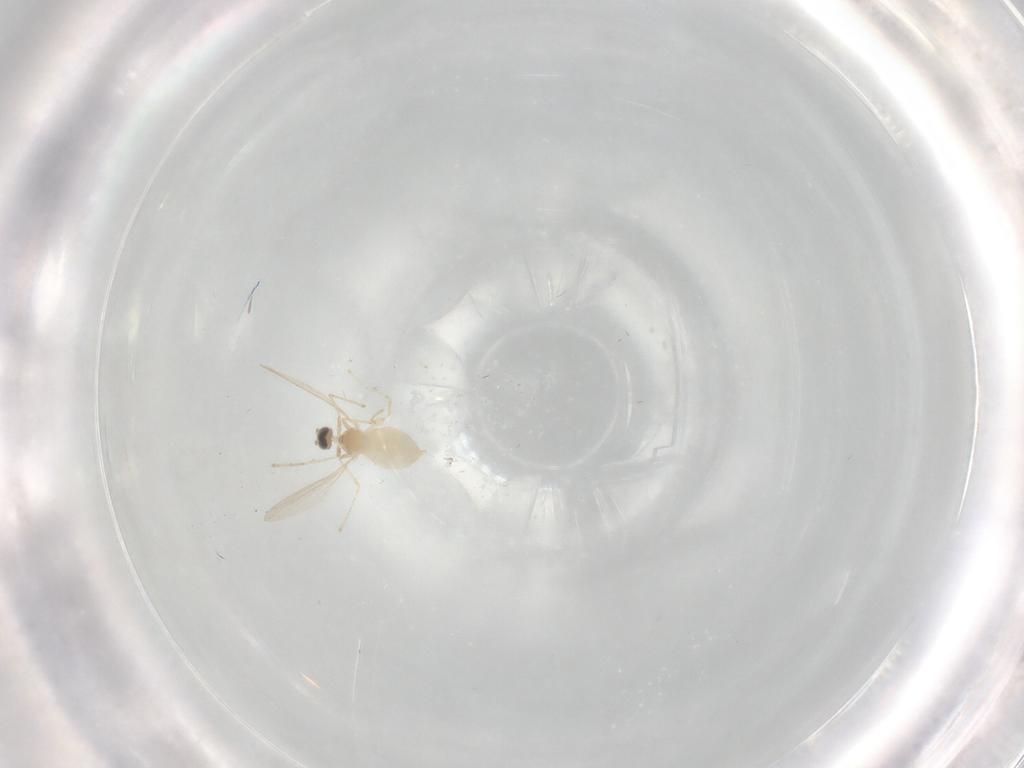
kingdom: Animalia
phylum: Arthropoda
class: Insecta
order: Diptera
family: Cecidomyiidae
